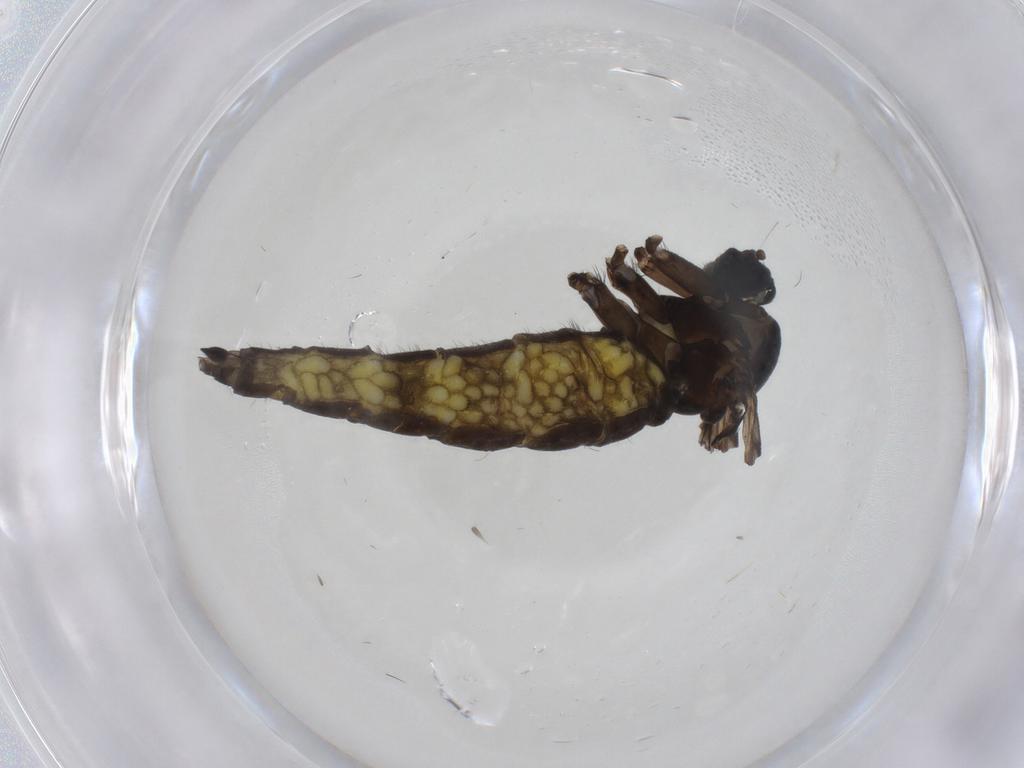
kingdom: Animalia
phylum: Arthropoda
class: Insecta
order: Diptera
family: Sciaridae
